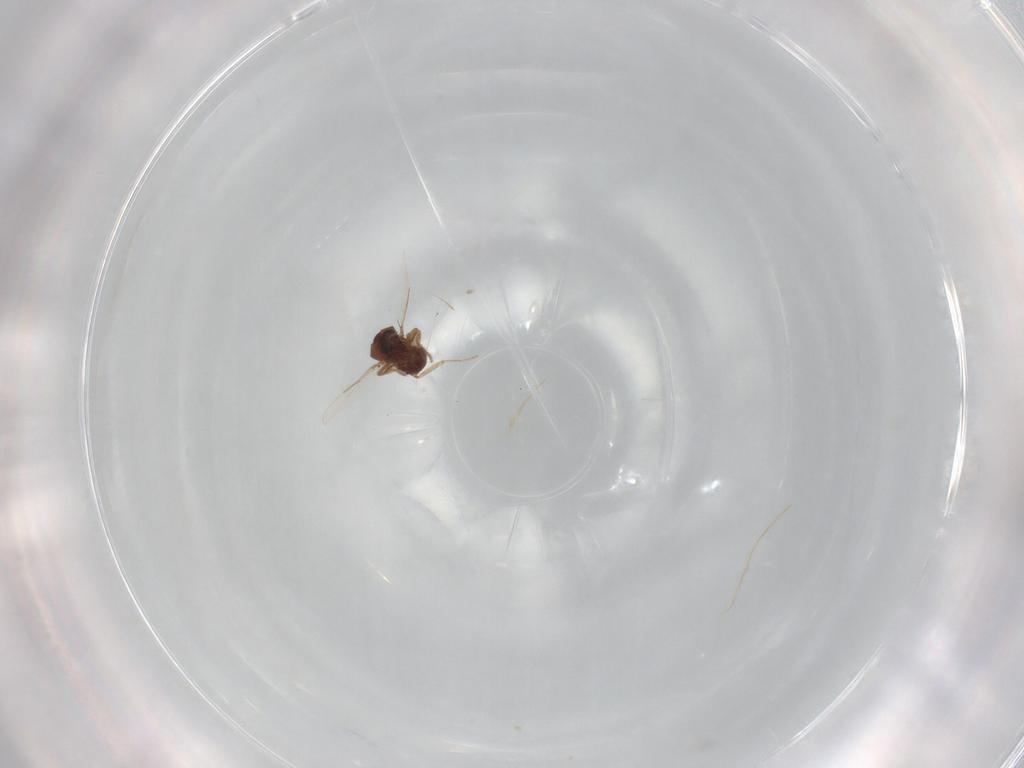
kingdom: Animalia
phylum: Arthropoda
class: Insecta
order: Diptera
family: Ceratopogonidae
